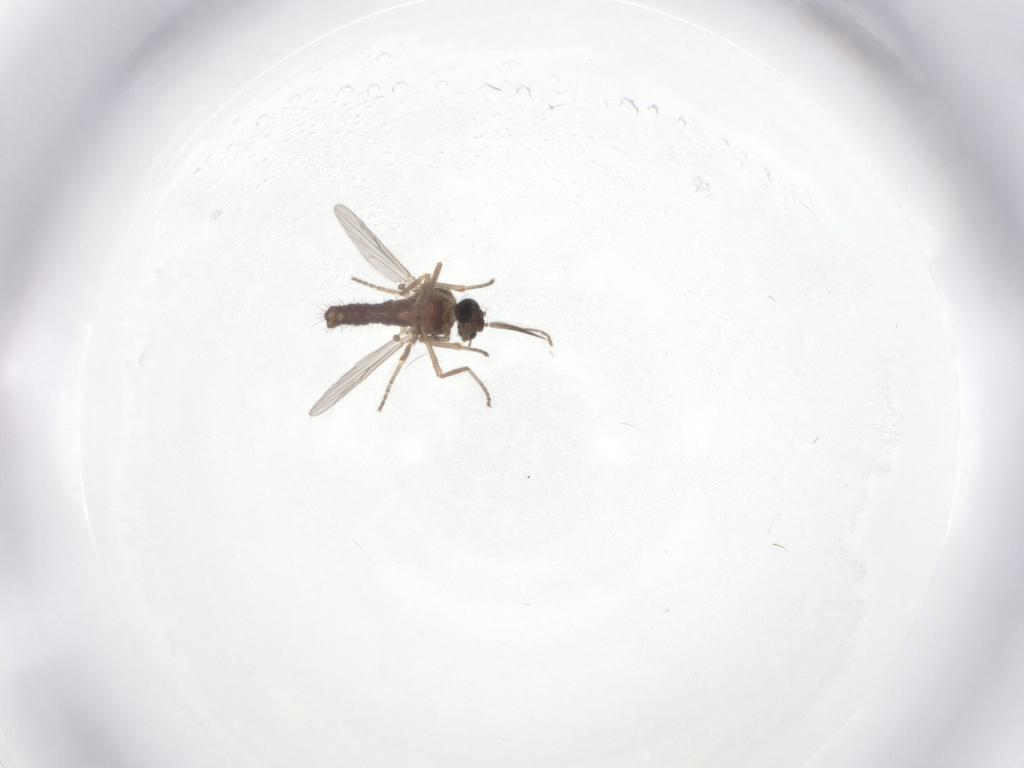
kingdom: Animalia
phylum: Arthropoda
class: Insecta
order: Diptera
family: Ceratopogonidae
